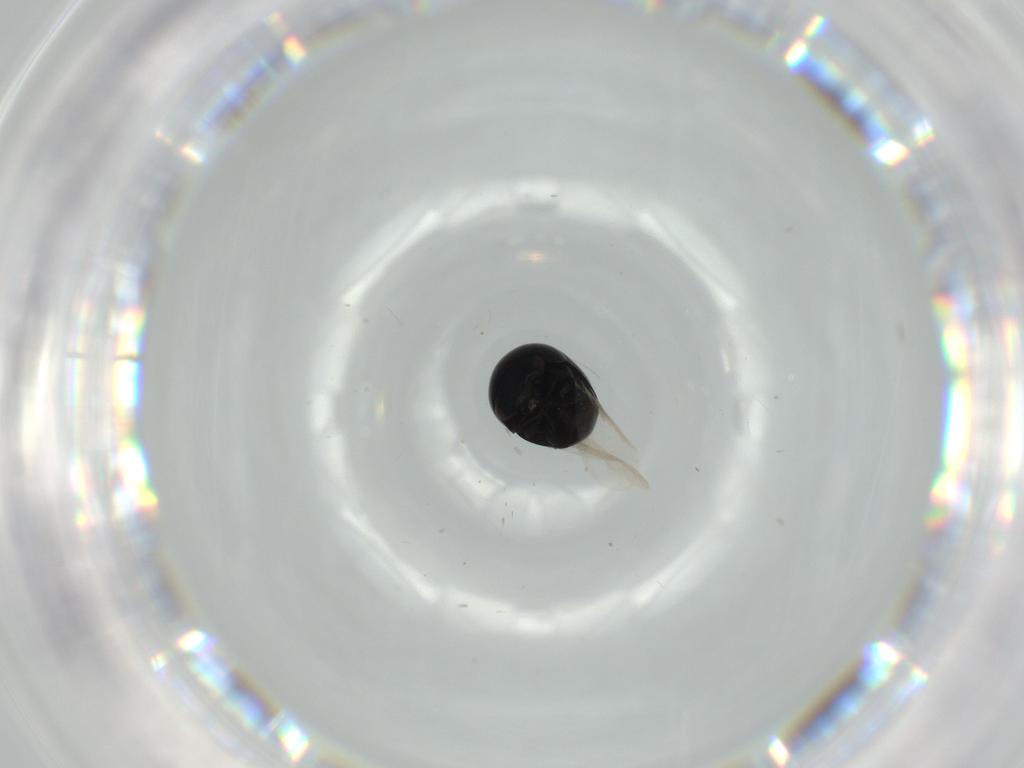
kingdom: Animalia
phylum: Arthropoda
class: Insecta
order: Coleoptera
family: Cybocephalidae
